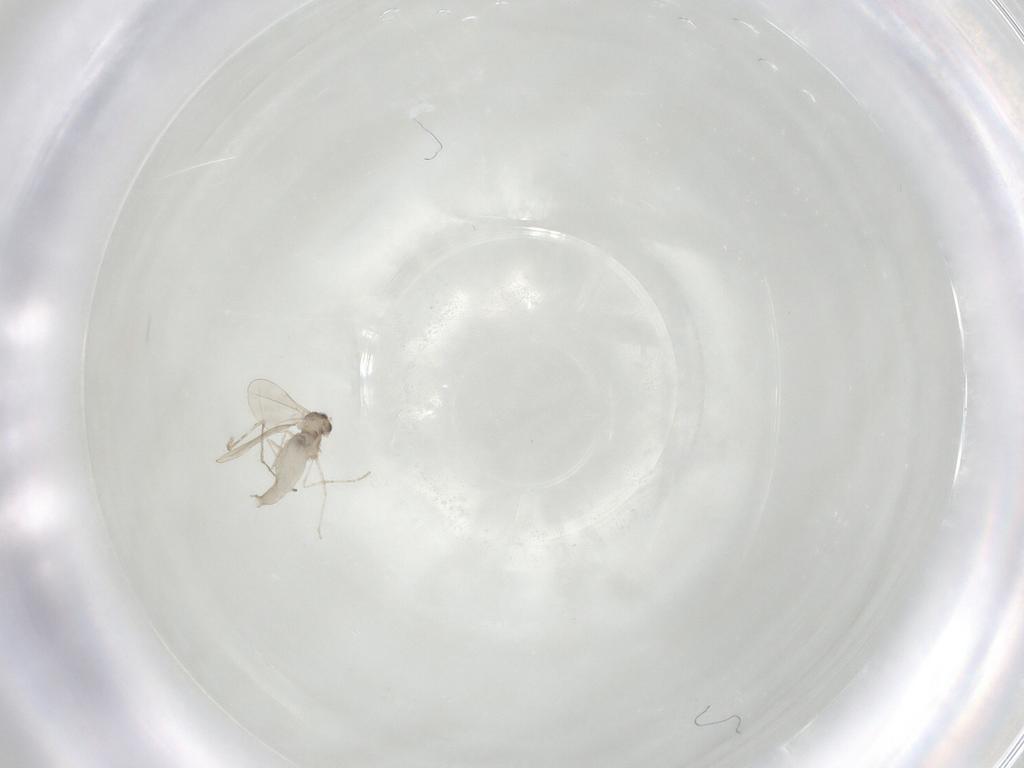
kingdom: Animalia
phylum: Arthropoda
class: Insecta
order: Diptera
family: Cecidomyiidae
